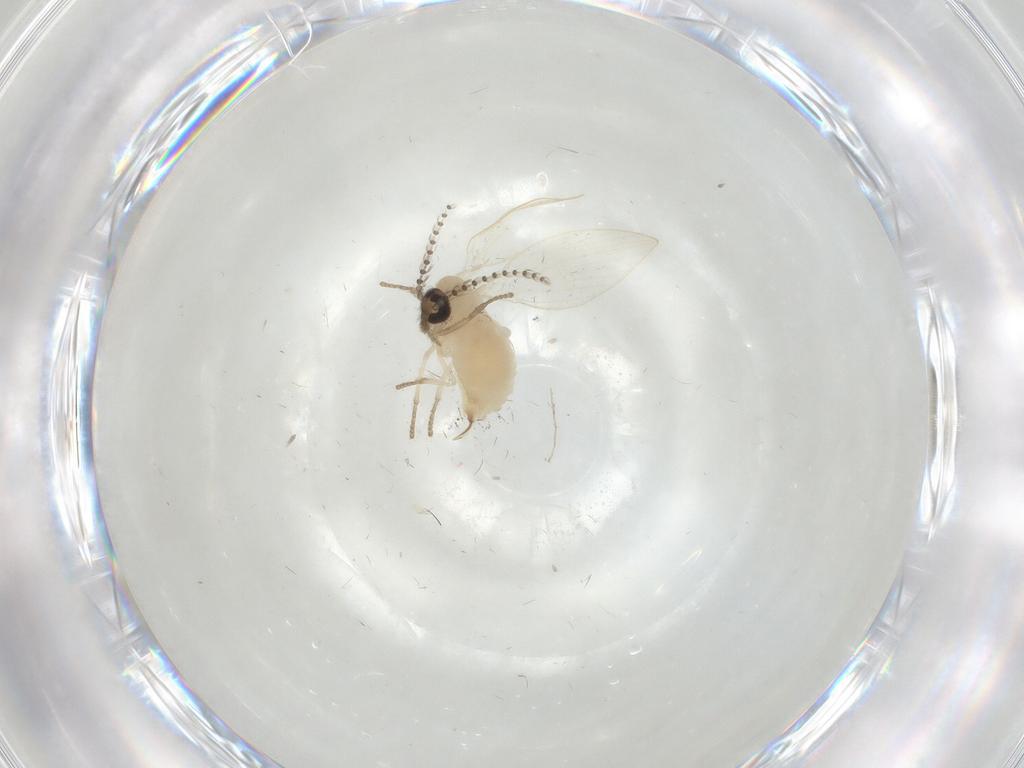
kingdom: Animalia
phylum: Arthropoda
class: Insecta
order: Diptera
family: Psychodidae
